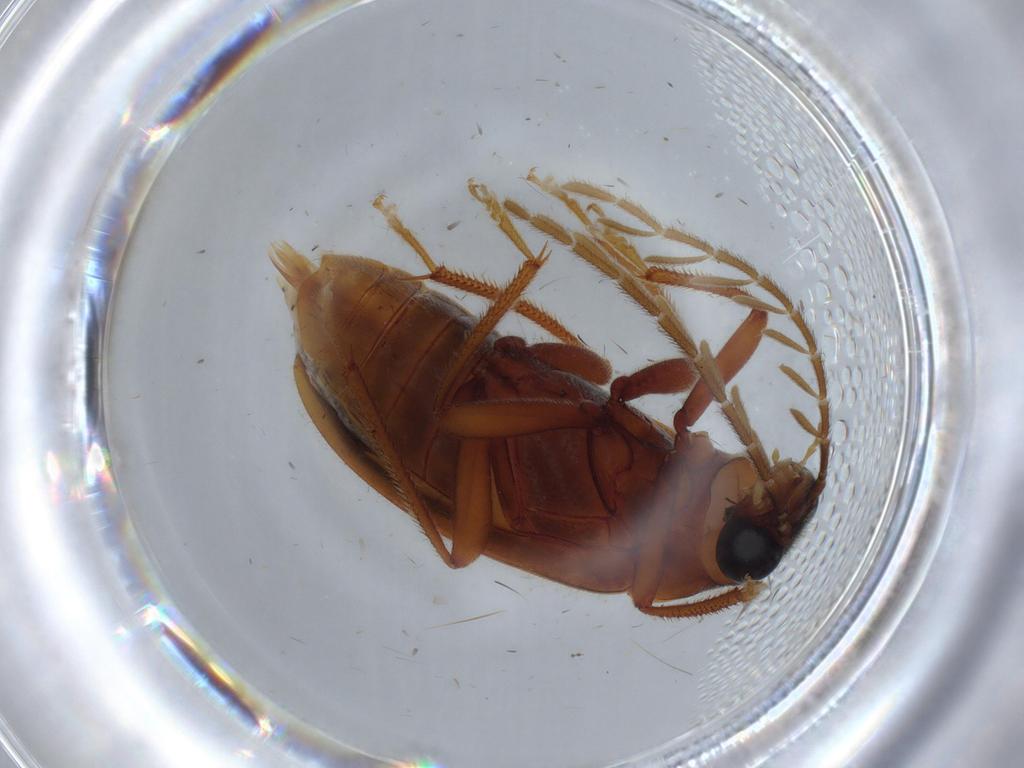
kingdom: Animalia
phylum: Arthropoda
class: Insecta
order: Coleoptera
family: Ptilodactylidae
